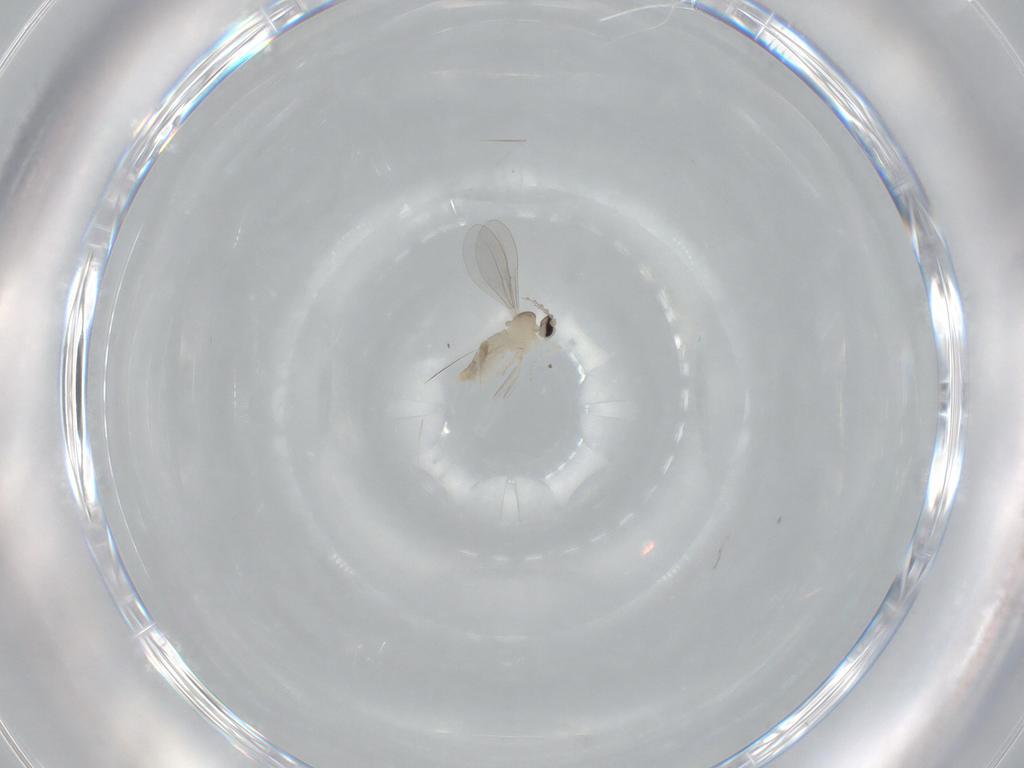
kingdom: Animalia
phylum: Arthropoda
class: Insecta
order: Diptera
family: Cecidomyiidae
